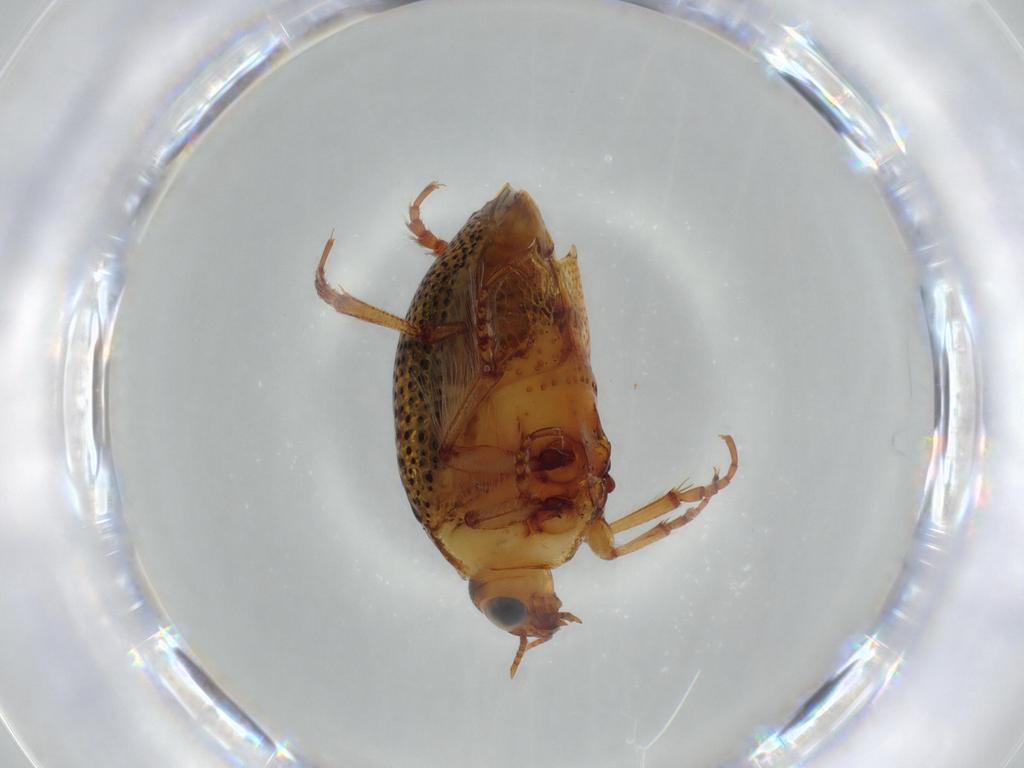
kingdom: Animalia
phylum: Arthropoda
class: Insecta
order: Coleoptera
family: Haliplidae
